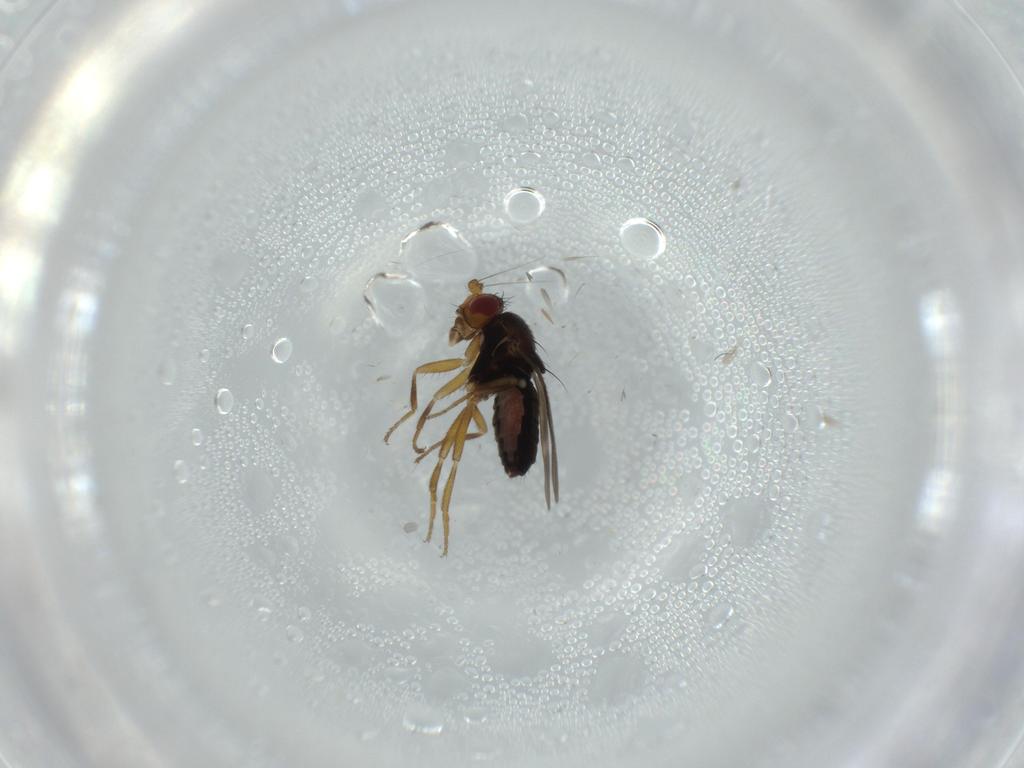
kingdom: Animalia
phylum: Arthropoda
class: Insecta
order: Diptera
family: Sphaeroceridae
